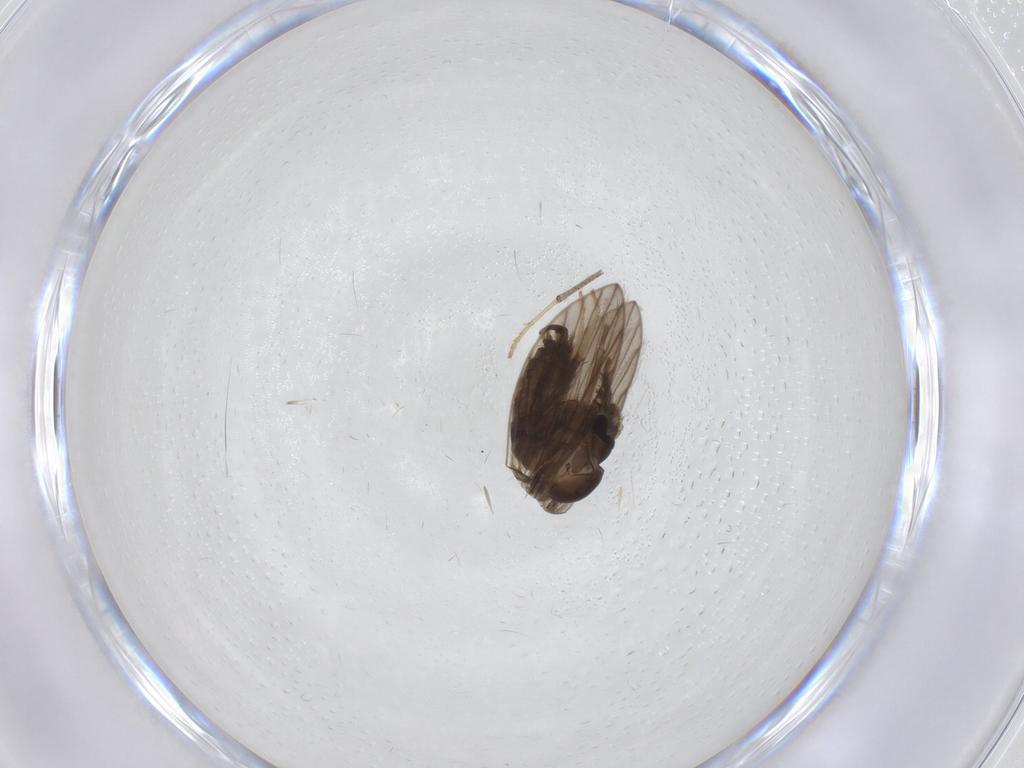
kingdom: Animalia
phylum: Arthropoda
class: Insecta
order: Diptera
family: Psychodidae
